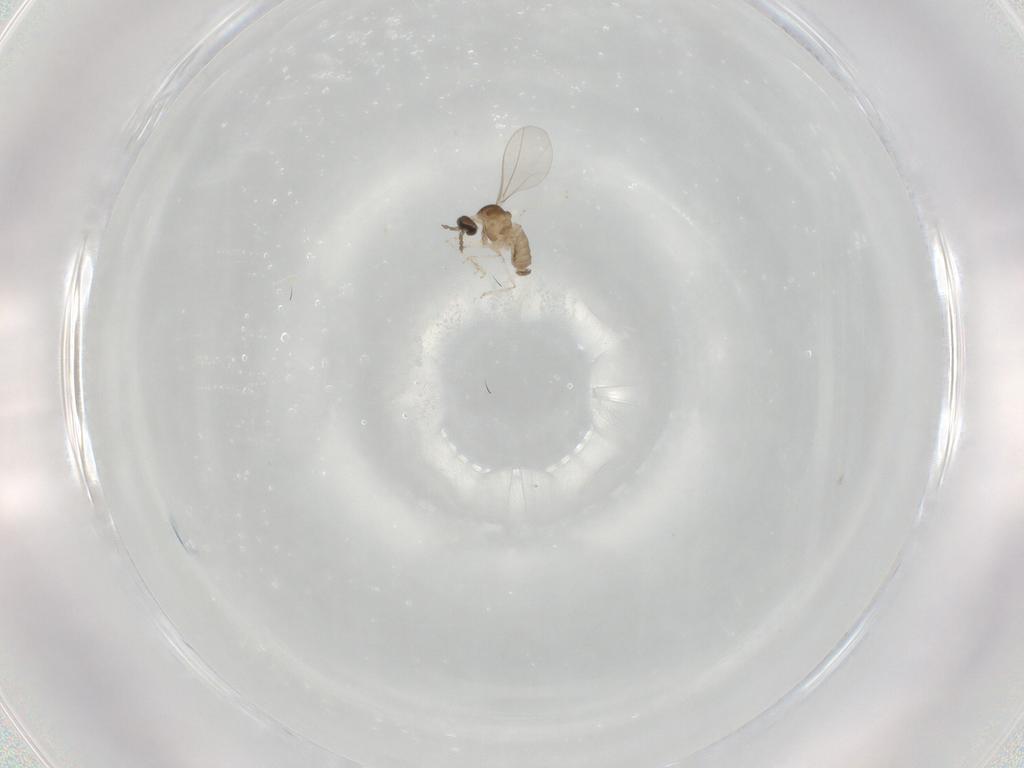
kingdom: Animalia
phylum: Arthropoda
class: Insecta
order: Diptera
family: Cecidomyiidae
